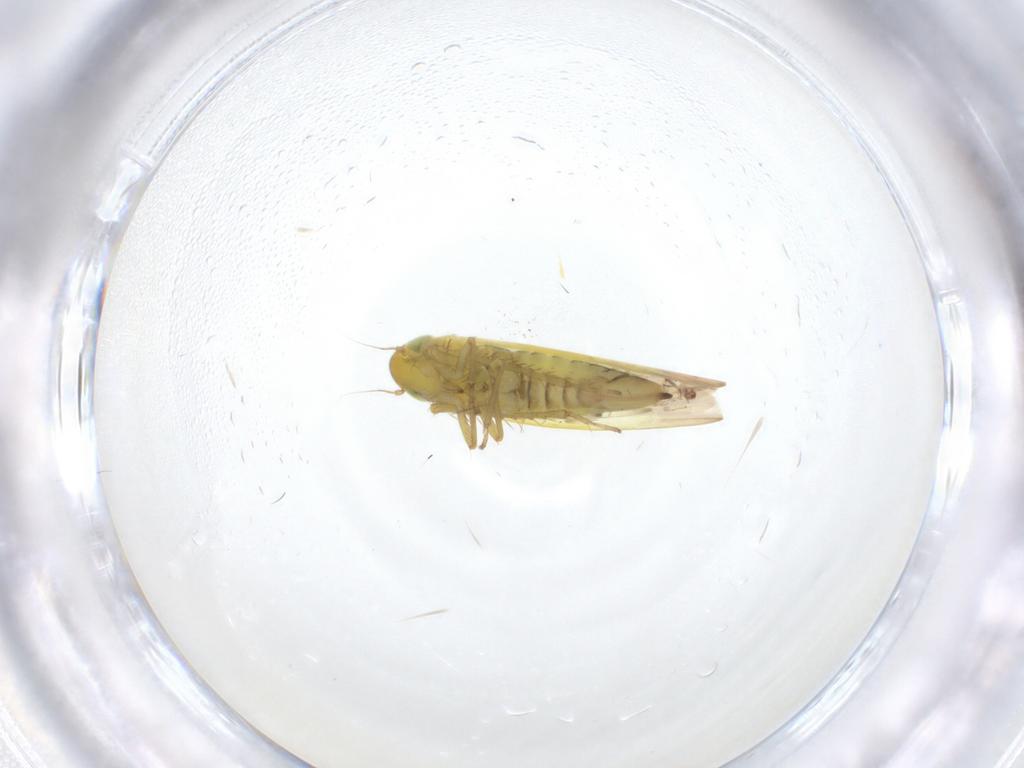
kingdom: Animalia
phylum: Arthropoda
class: Insecta
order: Hemiptera
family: Cicadellidae
